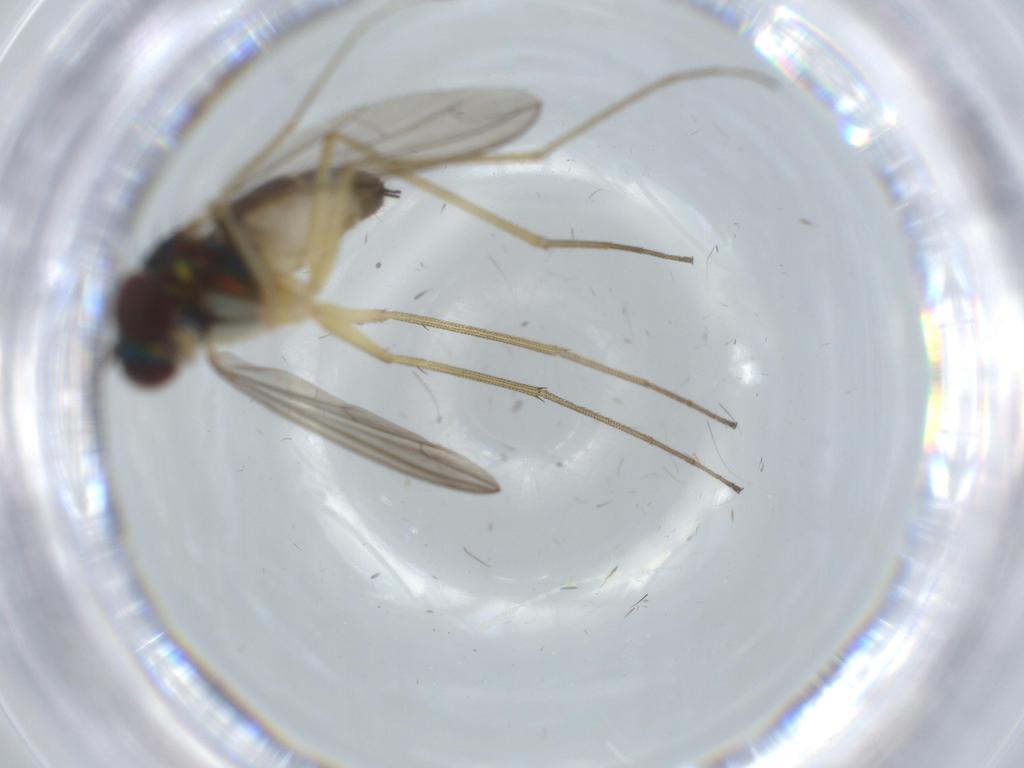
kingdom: Animalia
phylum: Arthropoda
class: Insecta
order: Diptera
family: Dolichopodidae
